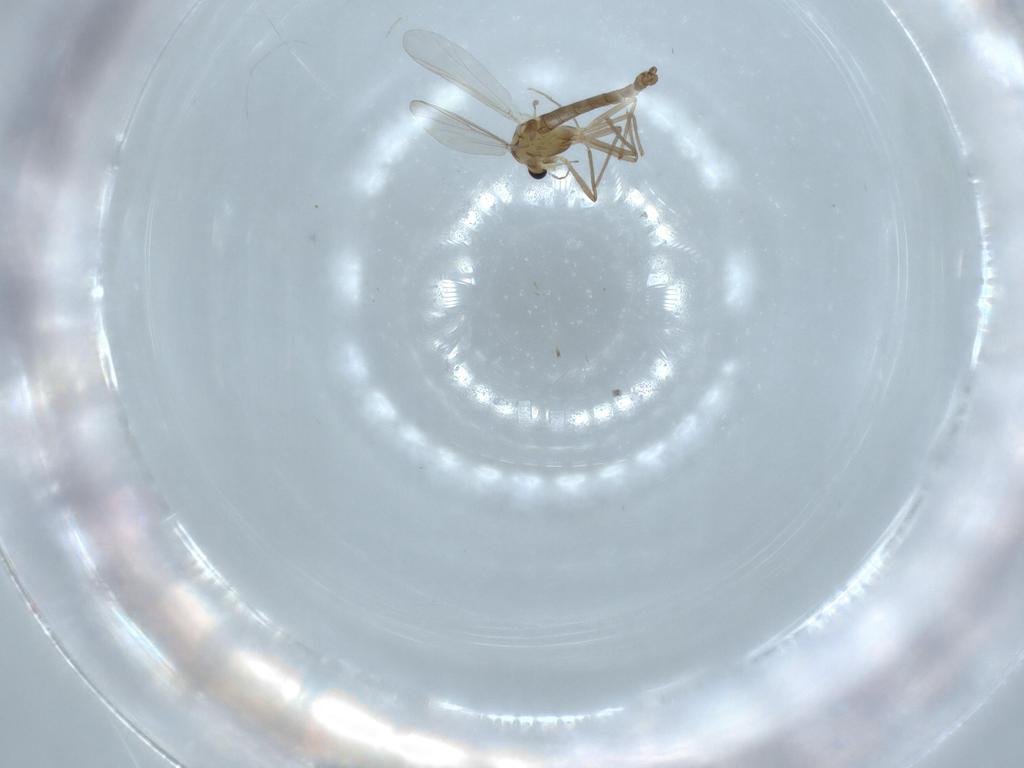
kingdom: Animalia
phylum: Arthropoda
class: Insecta
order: Diptera
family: Chironomidae
